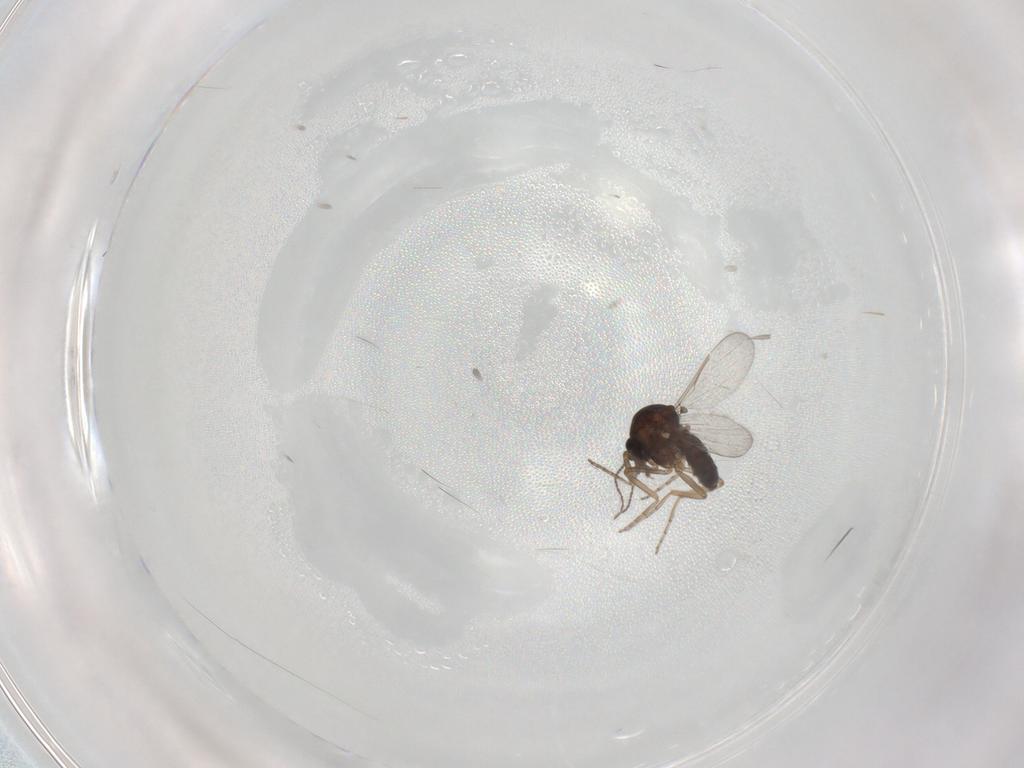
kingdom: Animalia
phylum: Arthropoda
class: Insecta
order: Diptera
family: Ceratopogonidae
